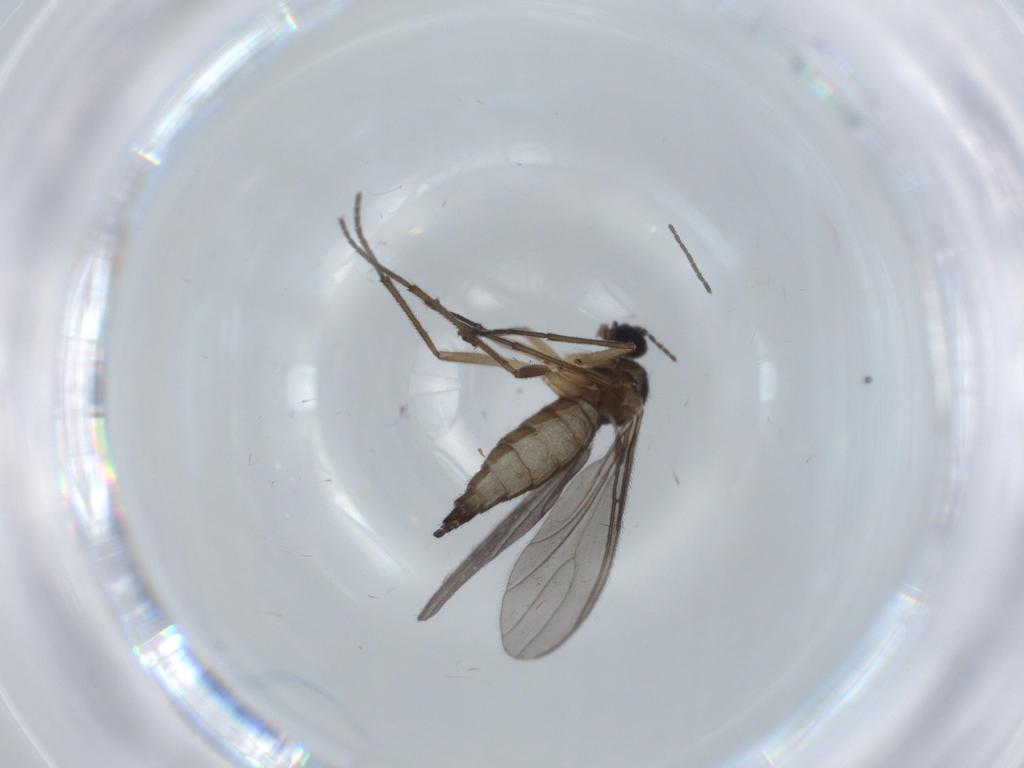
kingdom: Animalia
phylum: Arthropoda
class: Insecta
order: Diptera
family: Sciaridae
